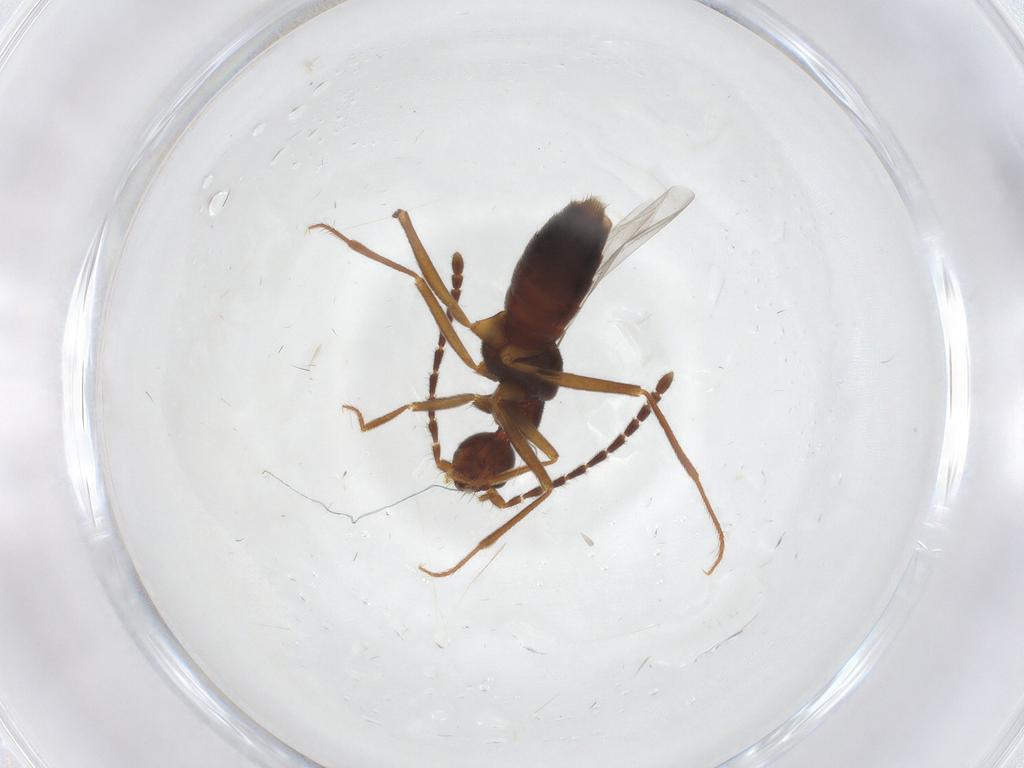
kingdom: Animalia
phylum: Arthropoda
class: Insecta
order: Coleoptera
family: Staphylinidae
